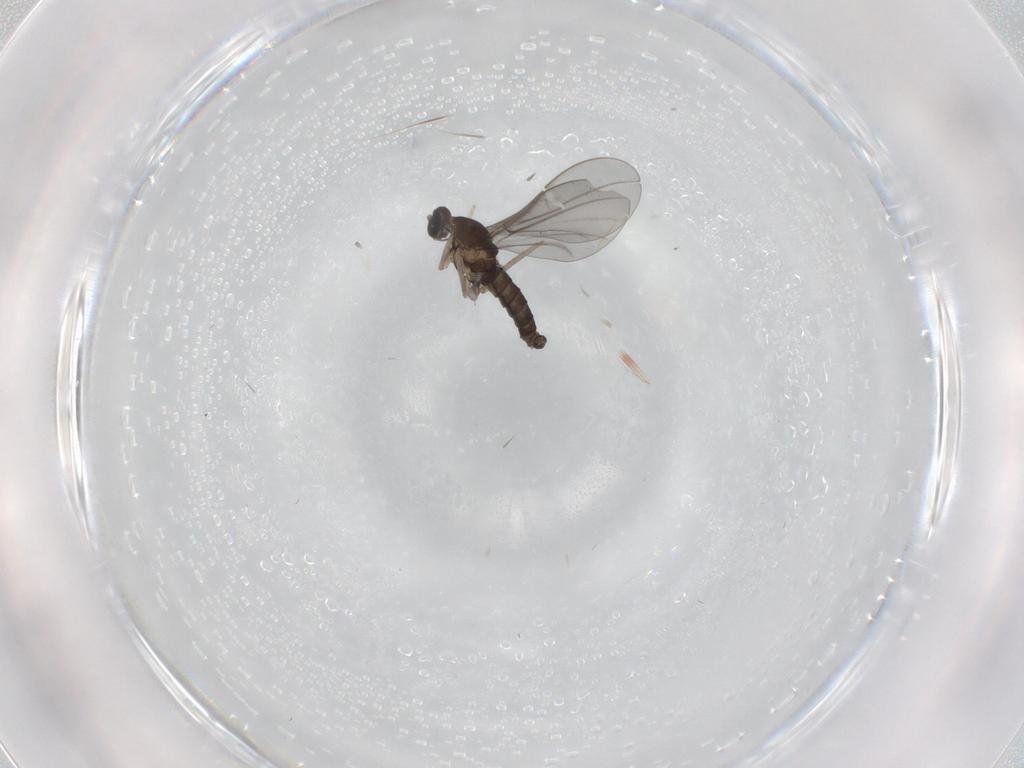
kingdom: Animalia
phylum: Arthropoda
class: Insecta
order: Diptera
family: Cecidomyiidae
